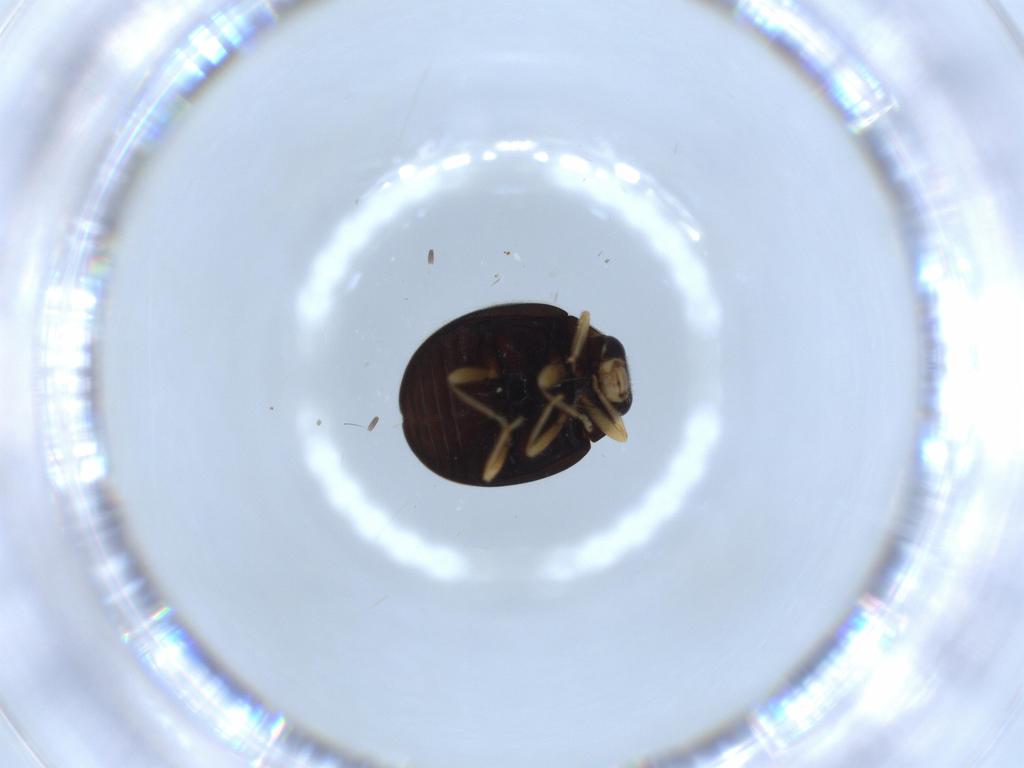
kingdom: Animalia
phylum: Arthropoda
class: Insecta
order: Coleoptera
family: Coccinellidae
